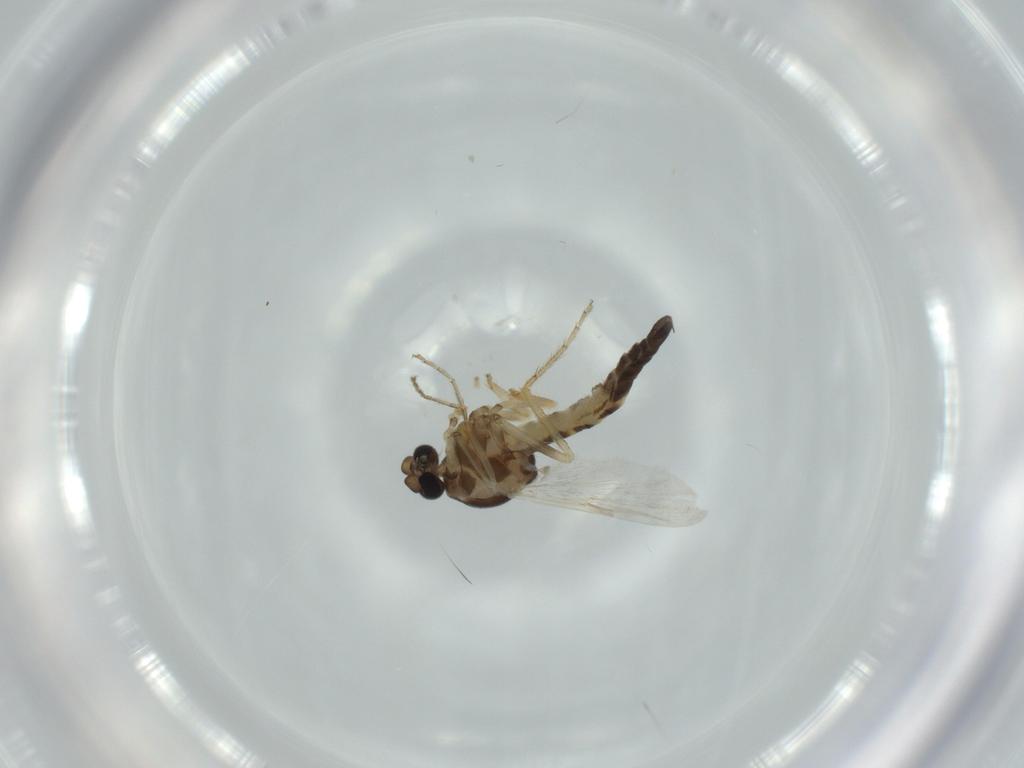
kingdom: Animalia
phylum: Arthropoda
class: Insecta
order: Diptera
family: Ceratopogonidae
